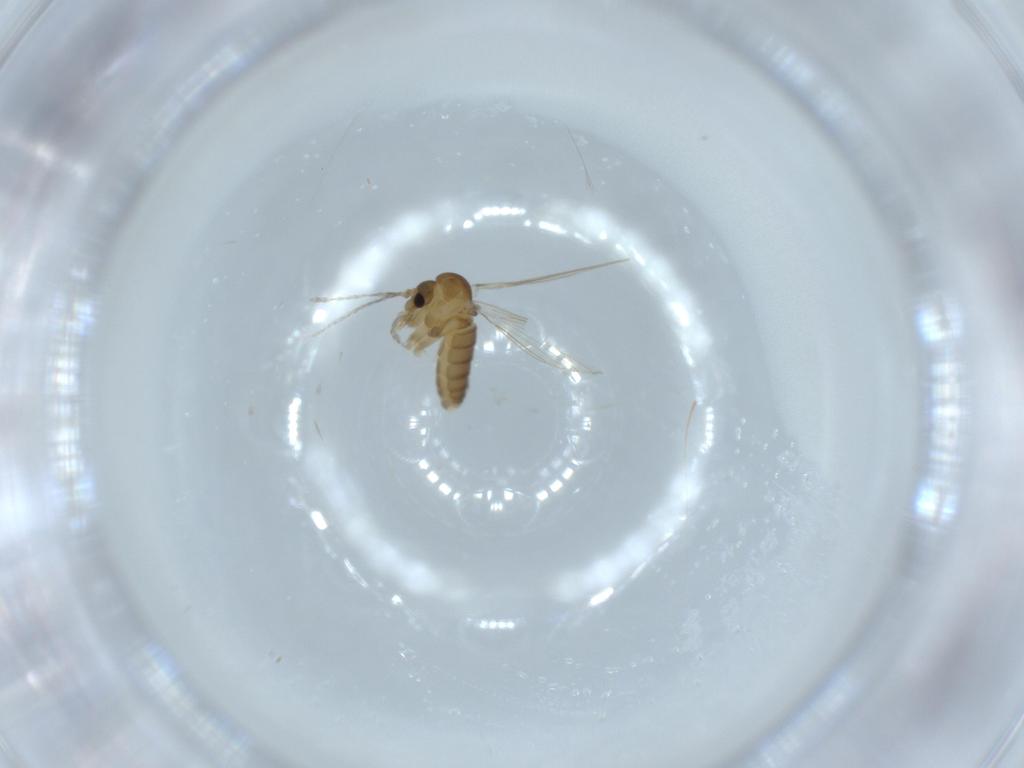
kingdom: Animalia
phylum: Arthropoda
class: Insecta
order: Diptera
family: Psychodidae
